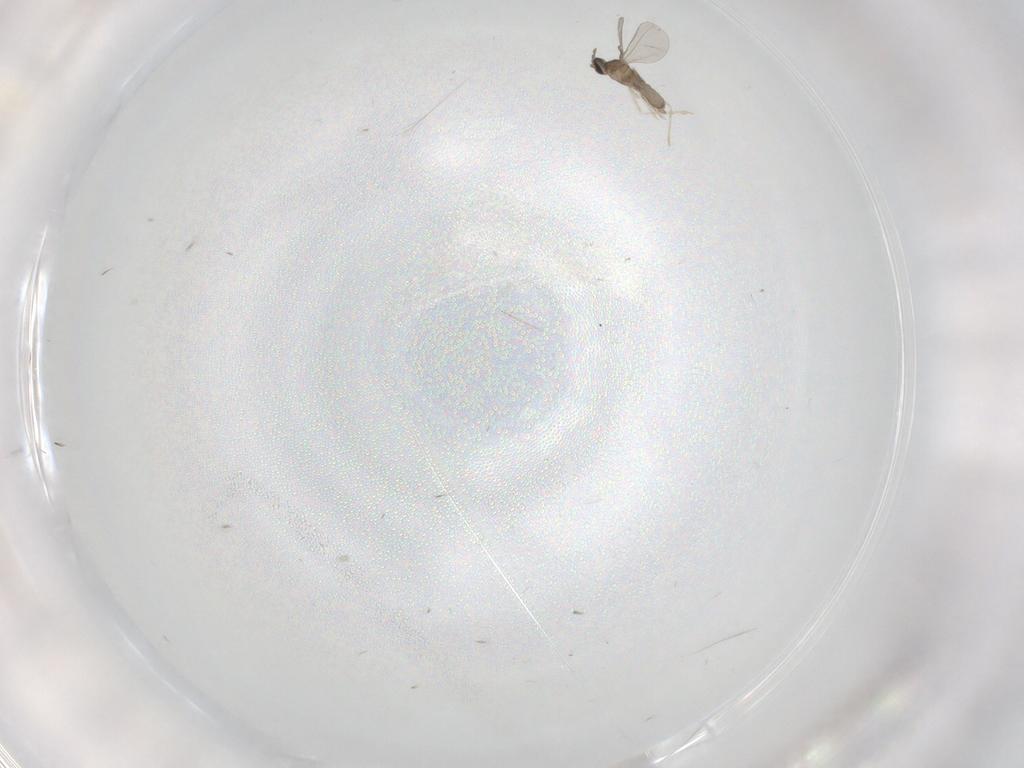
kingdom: Animalia
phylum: Arthropoda
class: Insecta
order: Diptera
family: Cecidomyiidae
